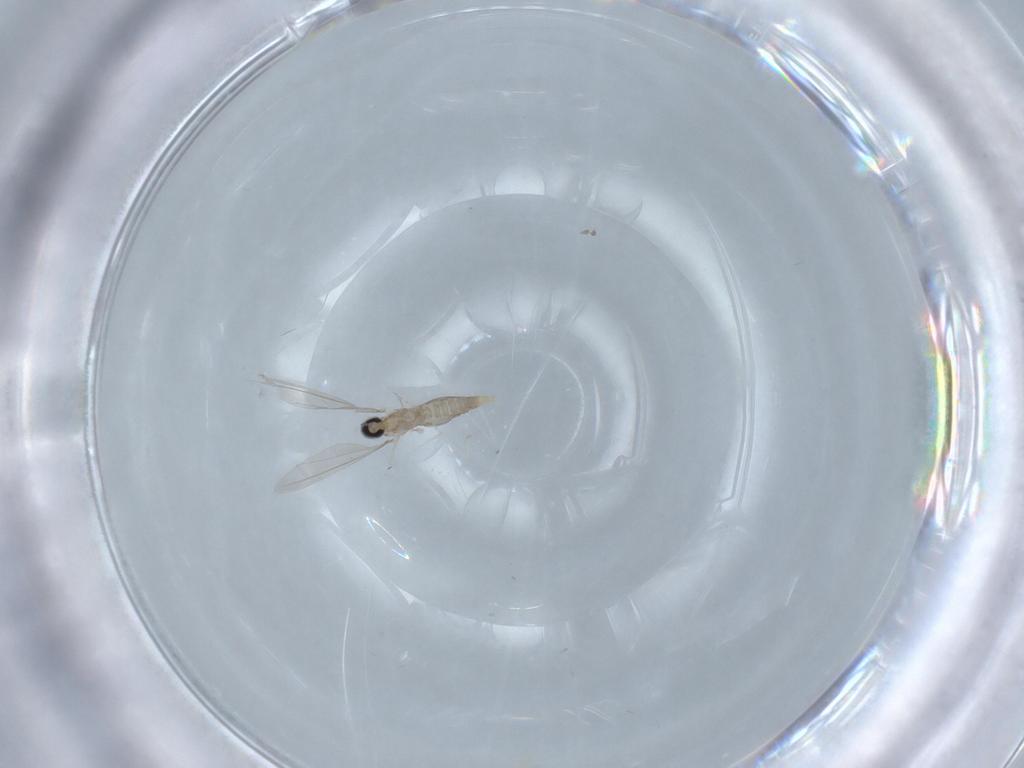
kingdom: Animalia
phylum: Arthropoda
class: Insecta
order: Diptera
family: Cecidomyiidae
